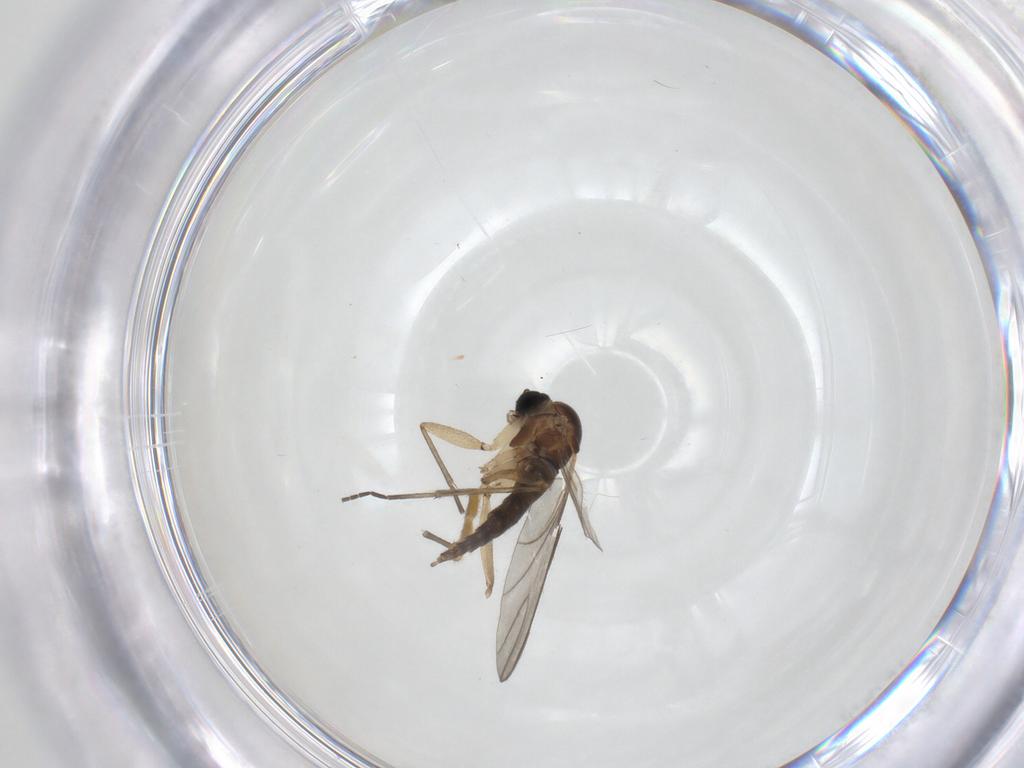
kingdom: Animalia
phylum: Arthropoda
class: Insecta
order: Diptera
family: Sciaridae
